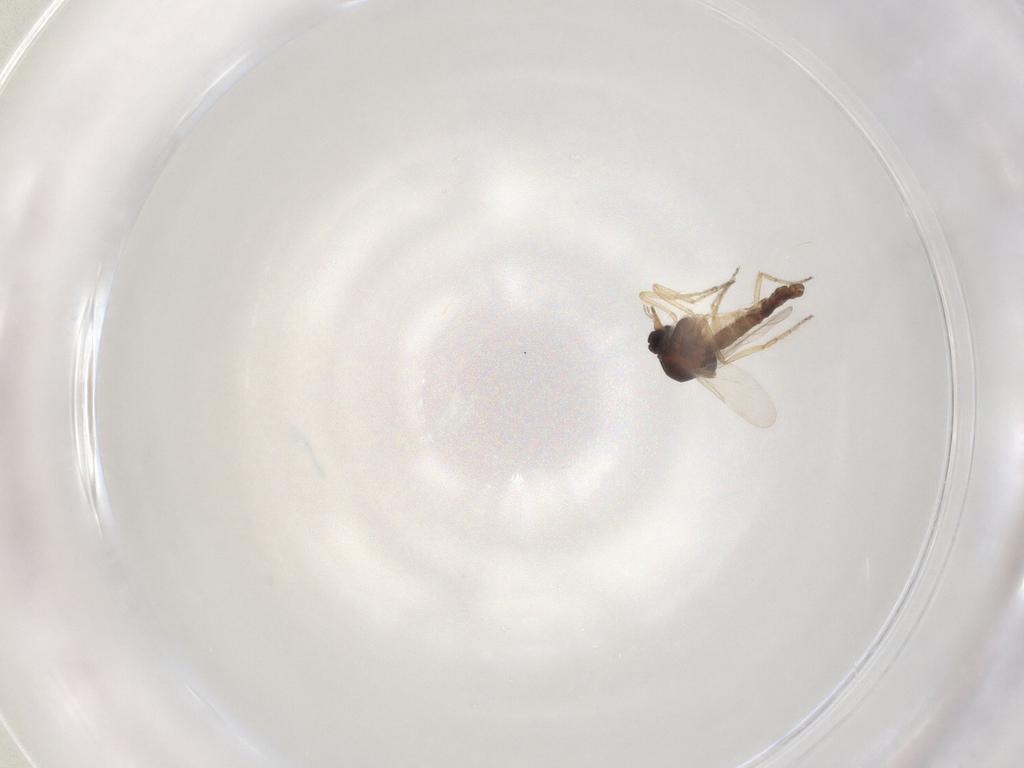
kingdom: Animalia
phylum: Arthropoda
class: Insecta
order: Diptera
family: Ceratopogonidae
